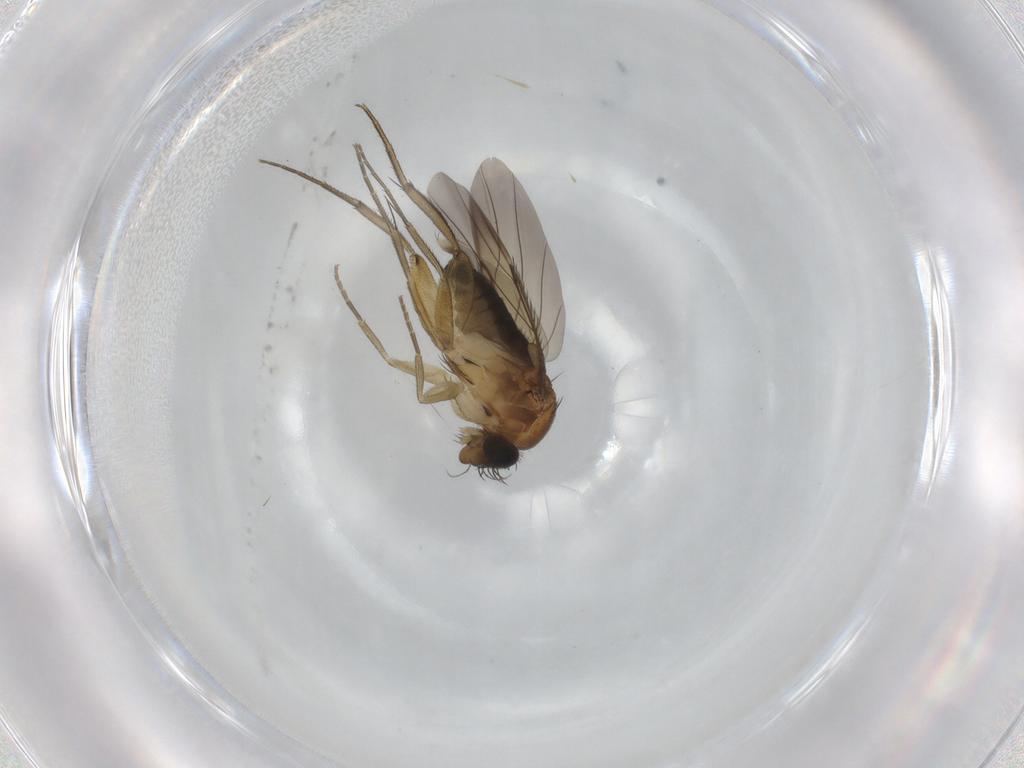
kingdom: Animalia
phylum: Arthropoda
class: Insecta
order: Diptera
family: Phoridae
